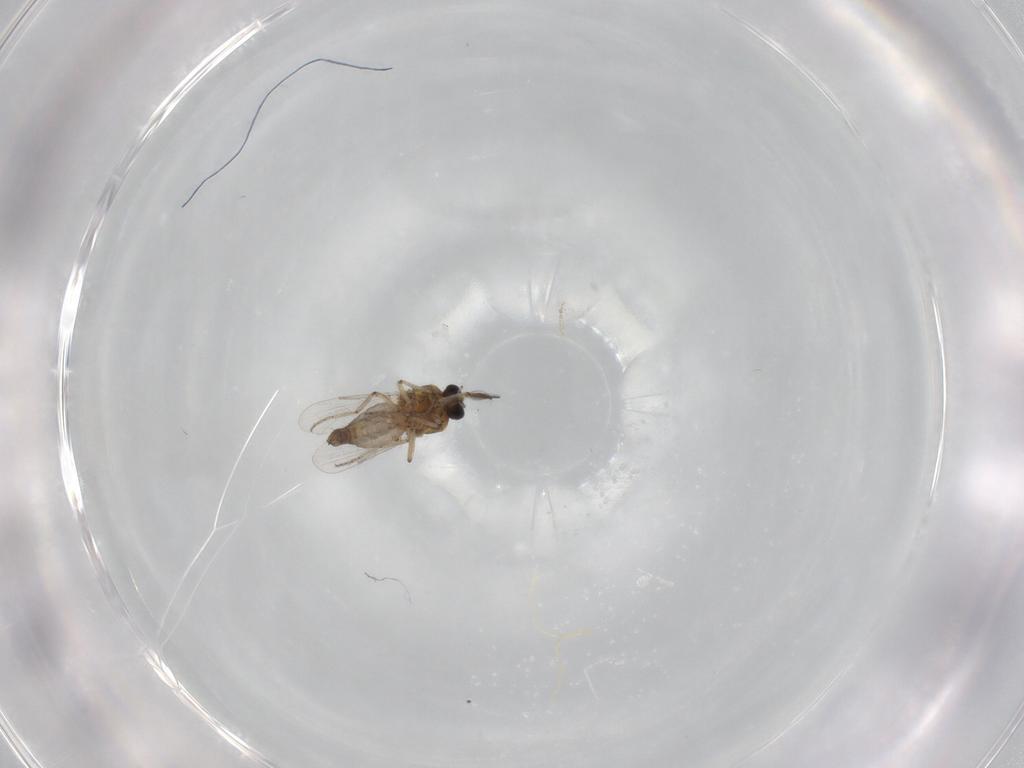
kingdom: Animalia
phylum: Arthropoda
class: Insecta
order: Diptera
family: Ceratopogonidae
